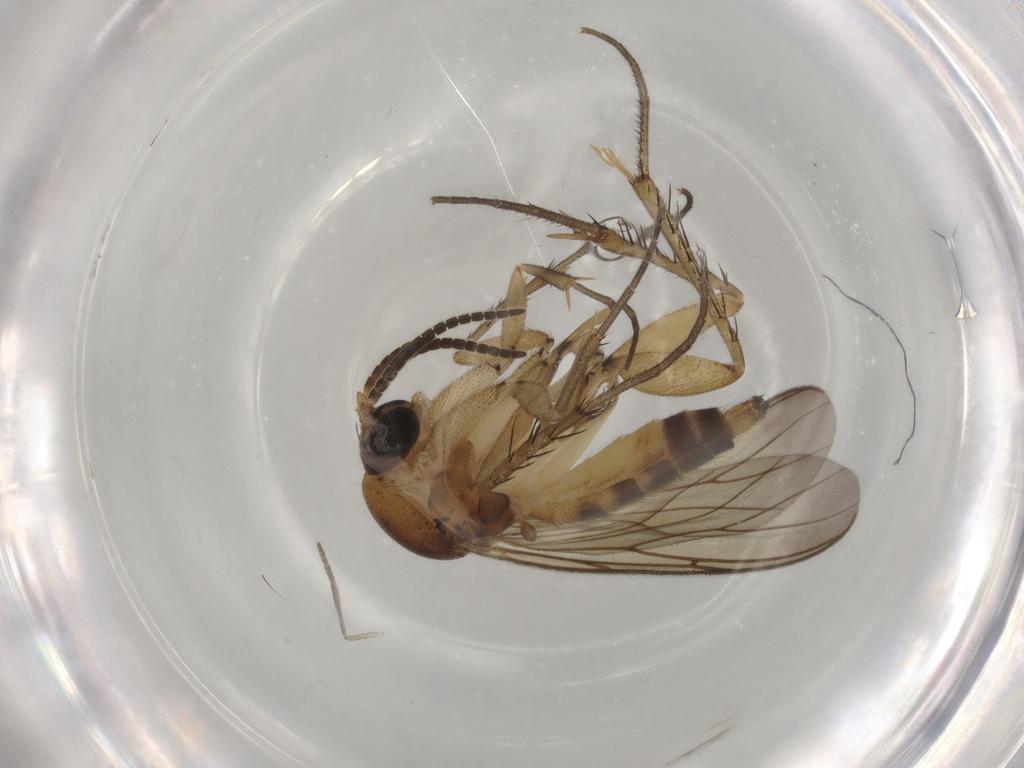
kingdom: Animalia
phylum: Arthropoda
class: Insecta
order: Diptera
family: Mycetophilidae
